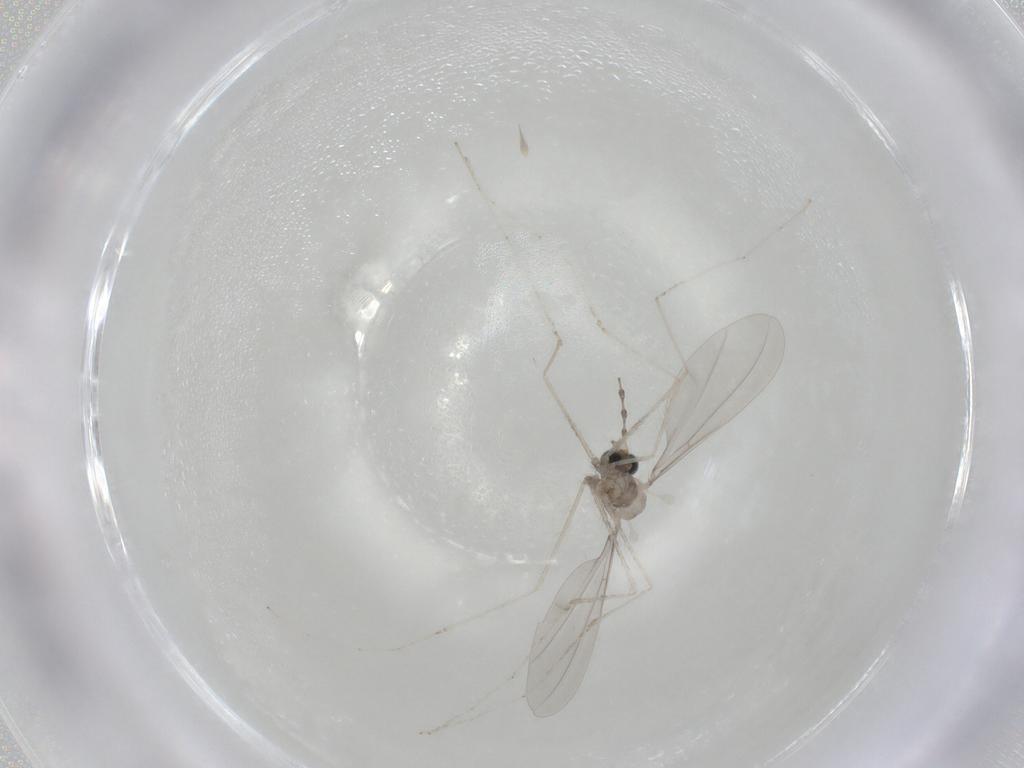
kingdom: Animalia
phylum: Arthropoda
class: Insecta
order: Diptera
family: Cecidomyiidae
